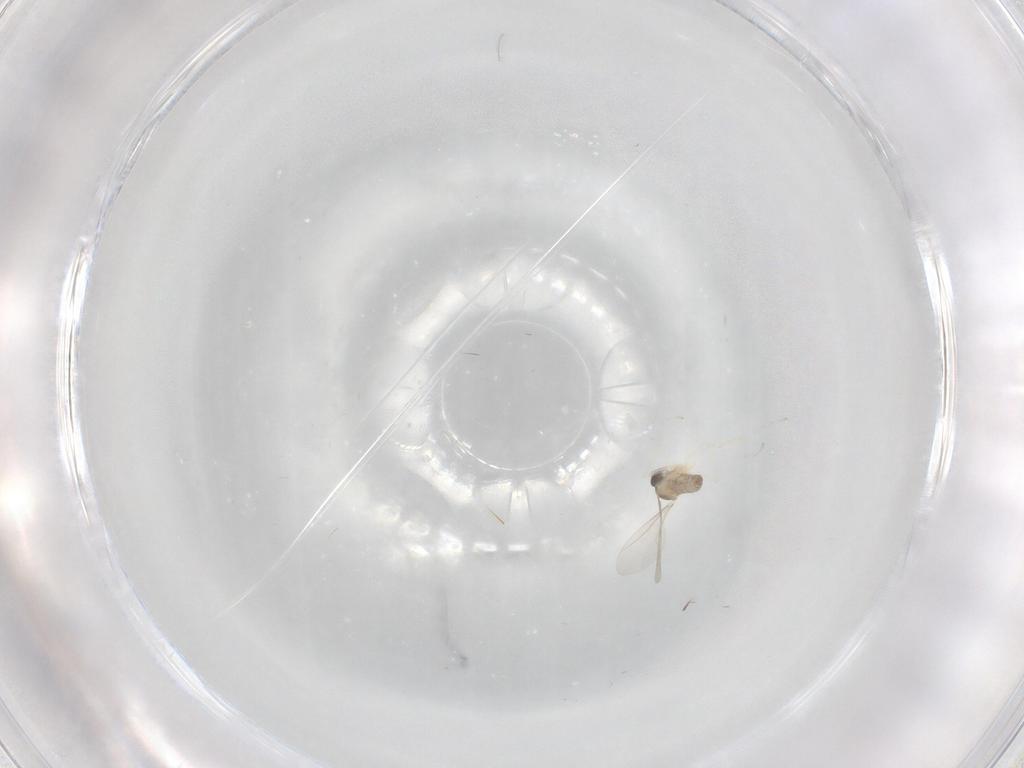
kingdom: Animalia
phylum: Arthropoda
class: Insecta
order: Diptera
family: Cecidomyiidae
